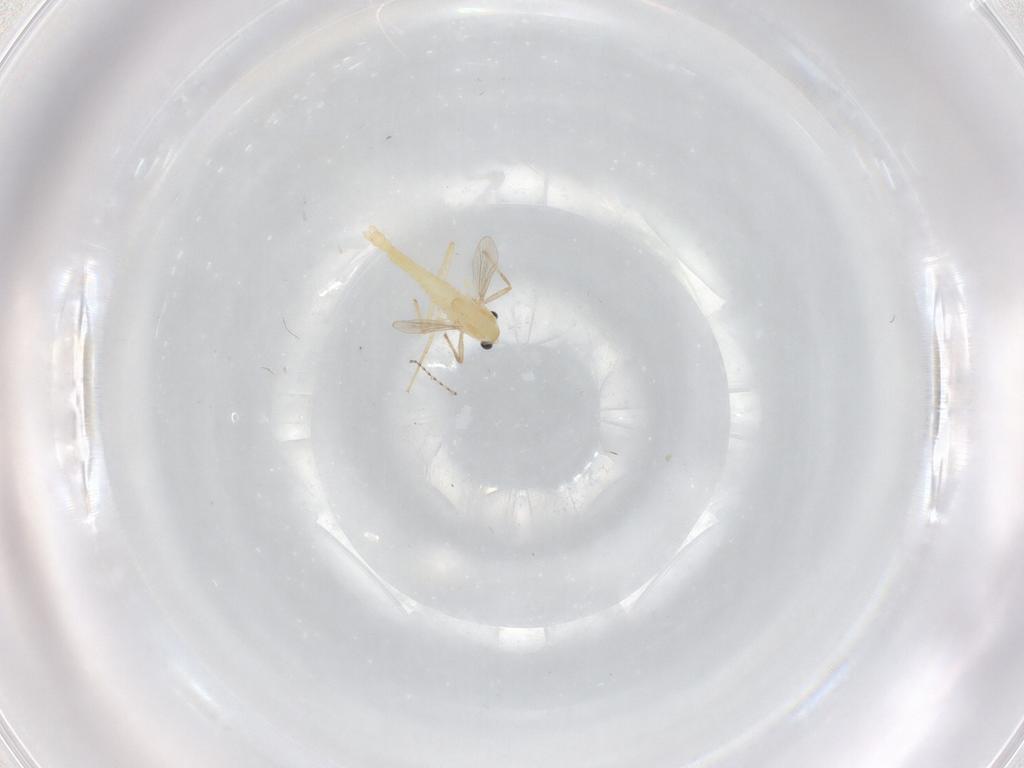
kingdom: Animalia
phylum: Arthropoda
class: Insecta
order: Diptera
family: Chironomidae
